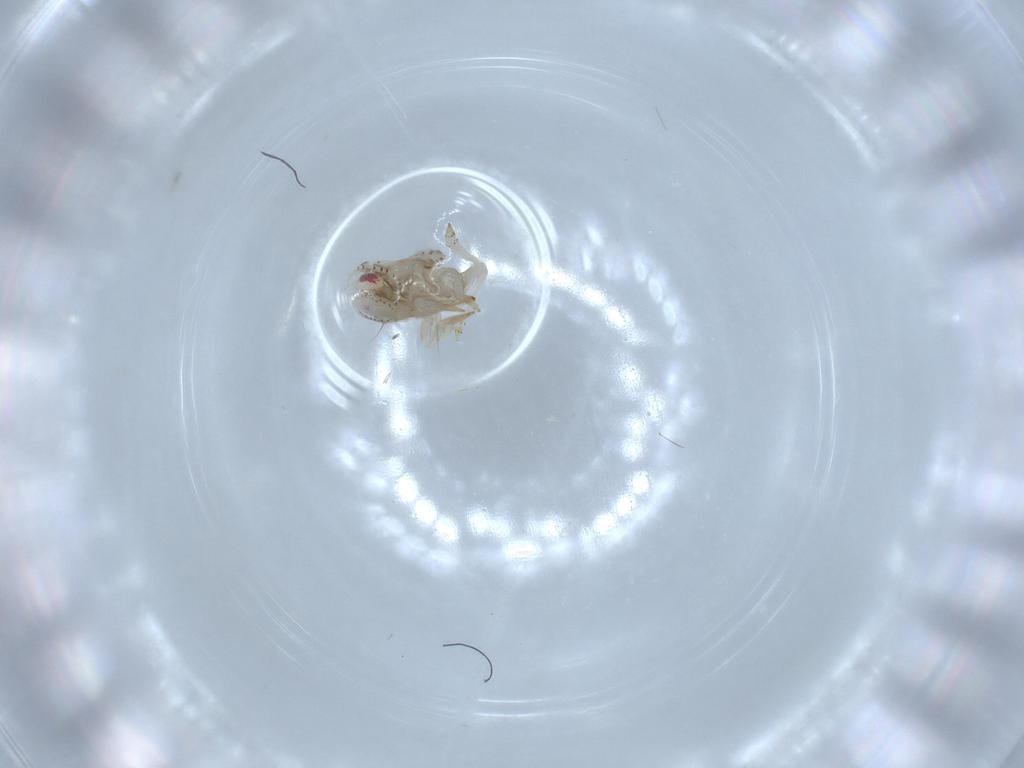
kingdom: Animalia
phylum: Arthropoda
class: Insecta
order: Hemiptera
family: Acanaloniidae
